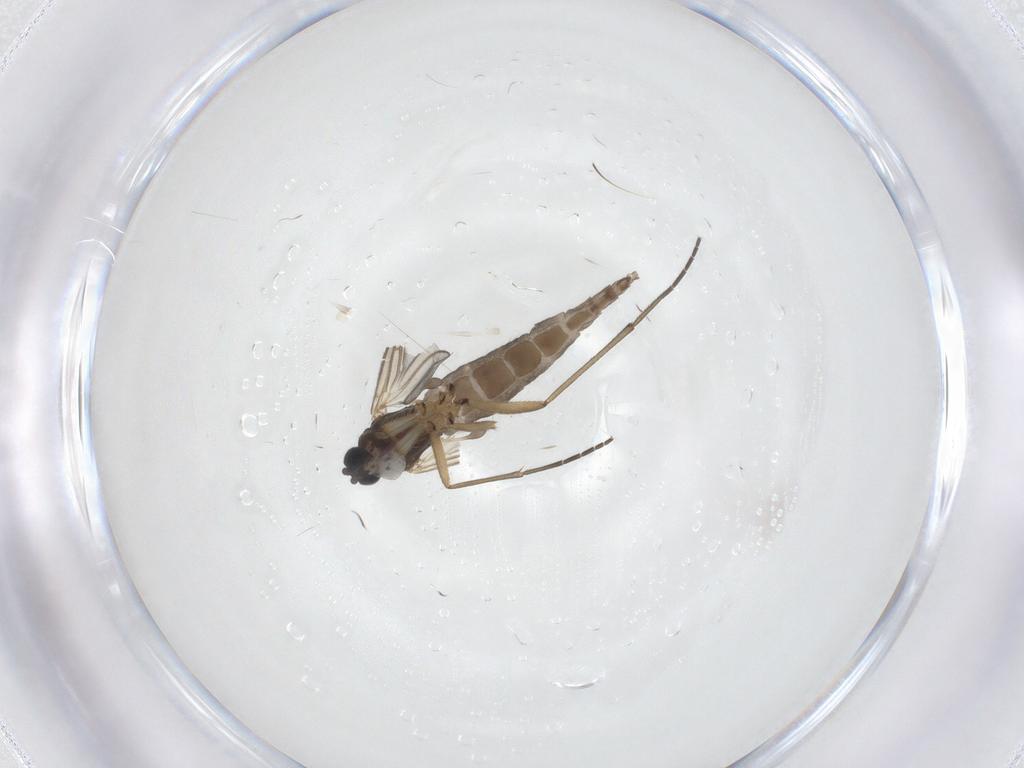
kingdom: Animalia
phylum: Arthropoda
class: Insecta
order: Diptera
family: Sciaridae
